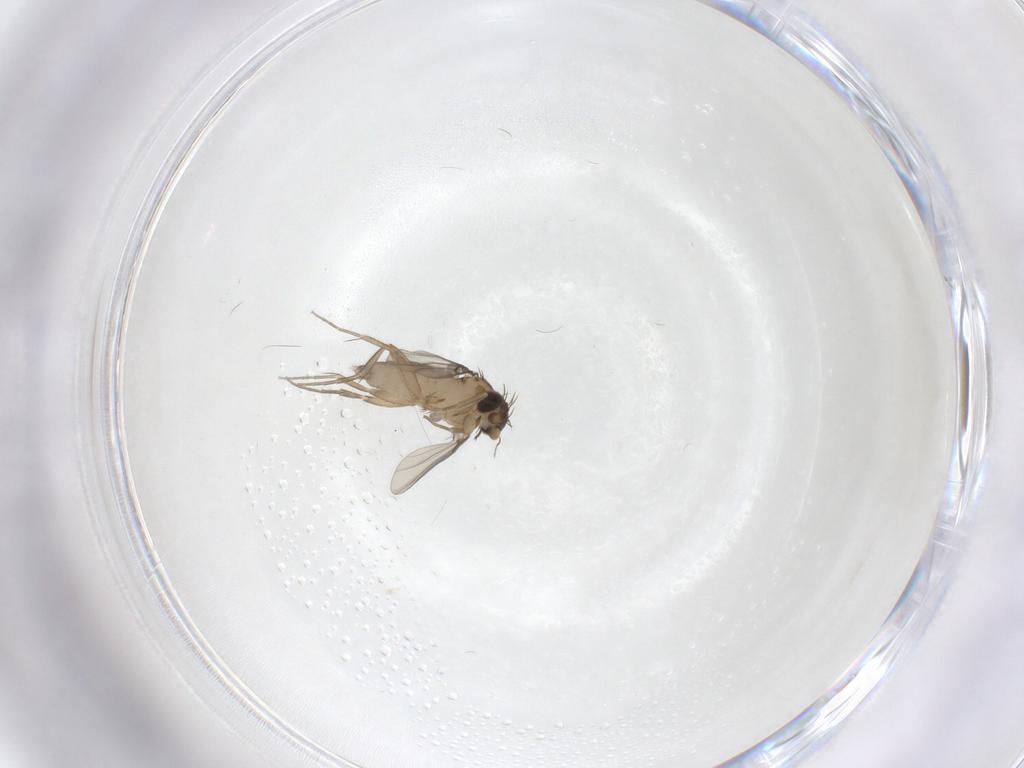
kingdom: Animalia
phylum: Arthropoda
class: Insecta
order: Diptera
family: Phoridae
